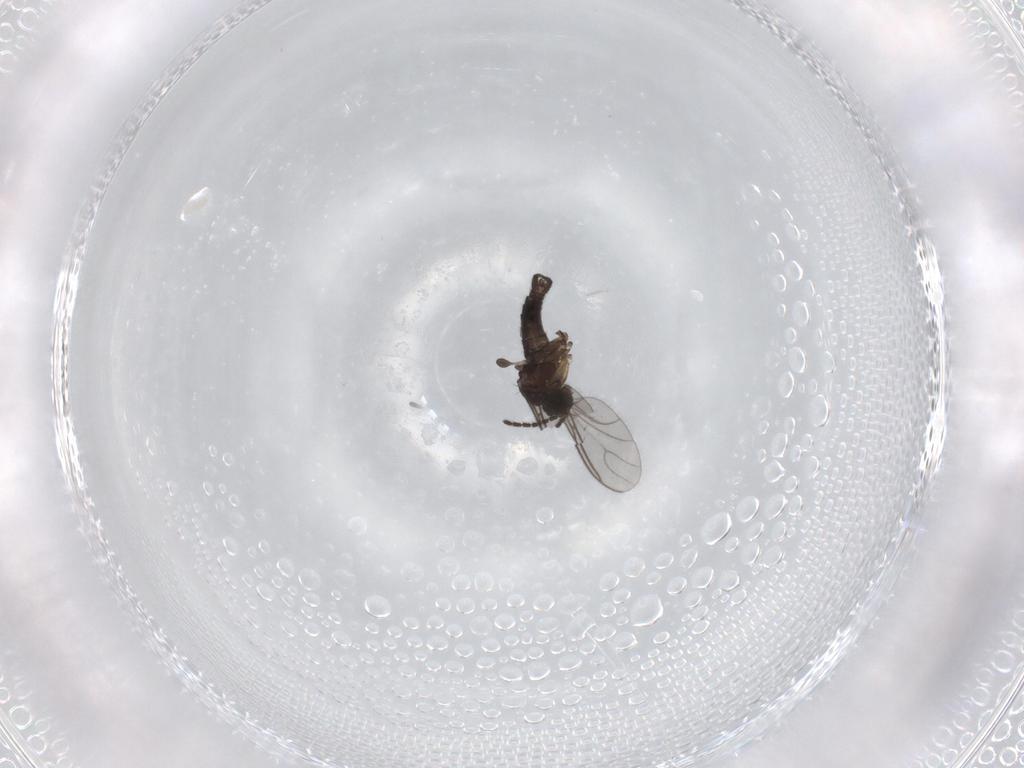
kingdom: Animalia
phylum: Arthropoda
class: Insecta
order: Diptera
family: Sciaridae
